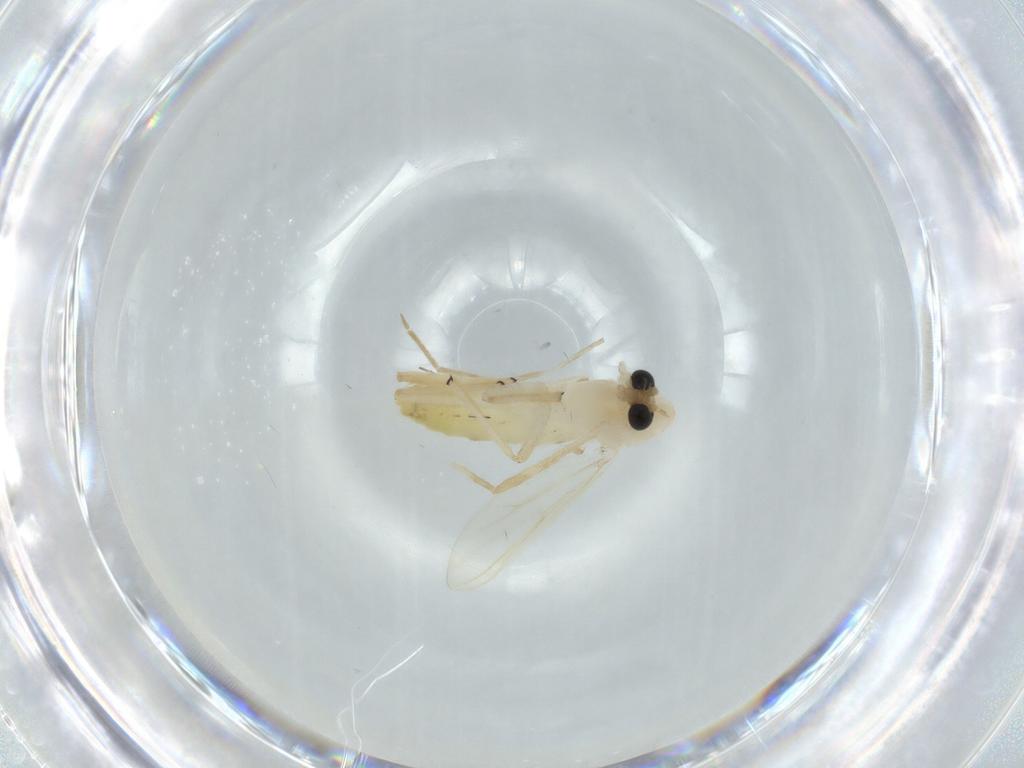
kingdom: Animalia
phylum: Arthropoda
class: Insecta
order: Diptera
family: Chironomidae
